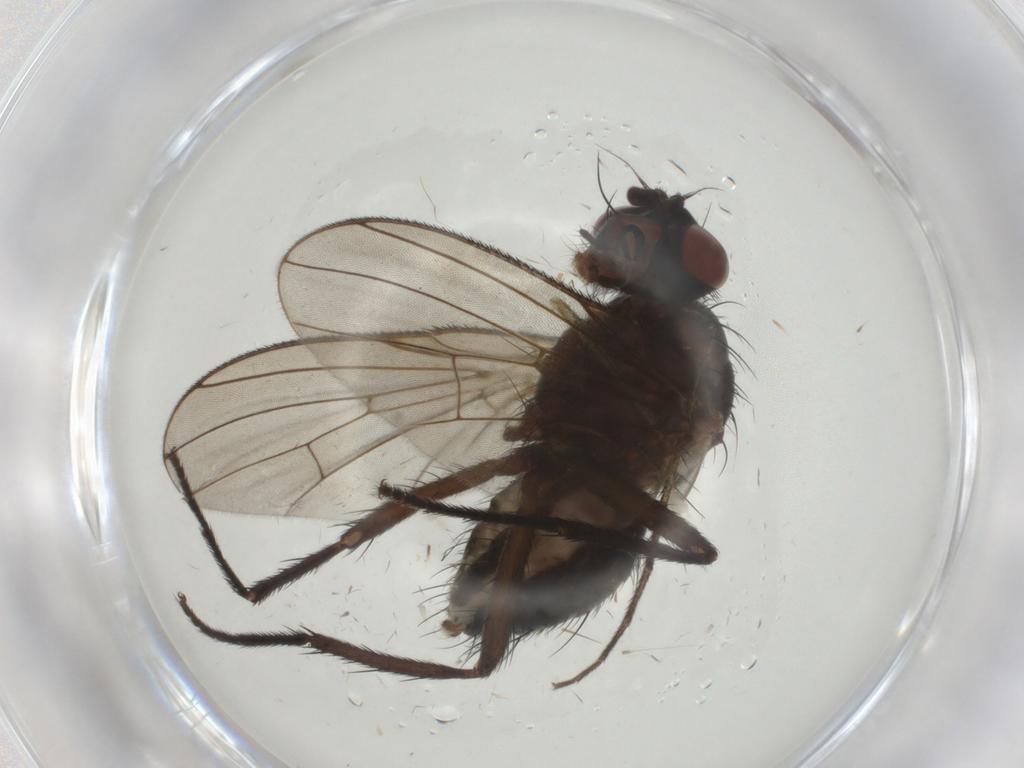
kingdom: Animalia
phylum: Arthropoda
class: Insecta
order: Diptera
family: Anthomyiidae
